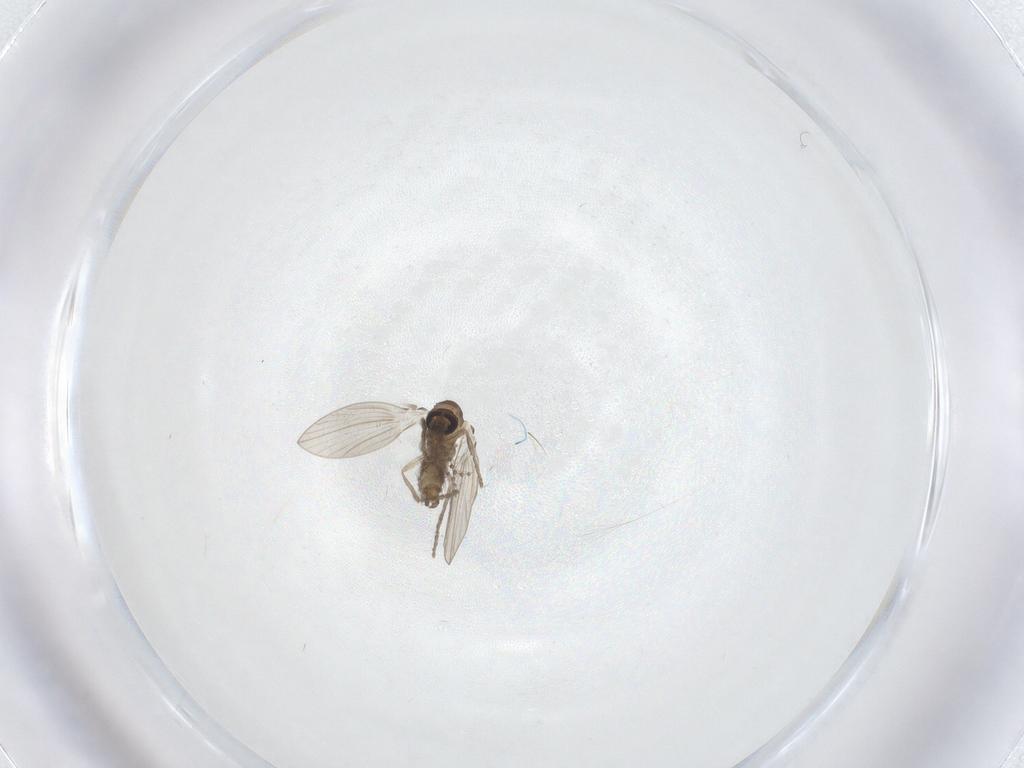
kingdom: Animalia
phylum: Arthropoda
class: Insecta
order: Diptera
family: Psychodidae
